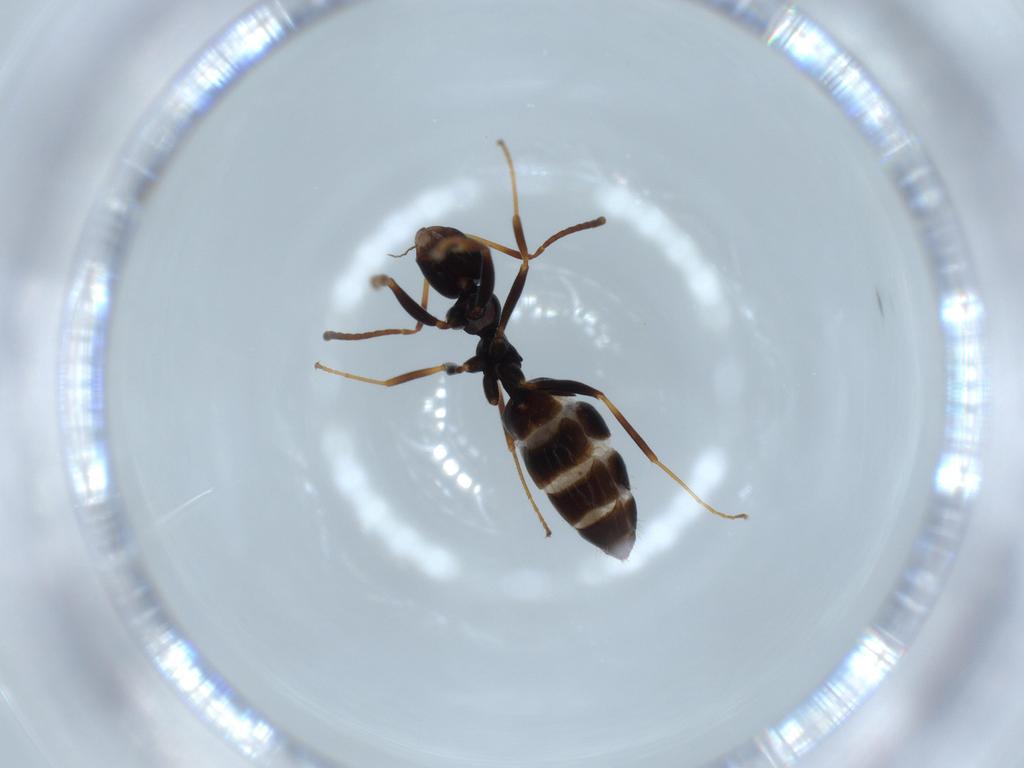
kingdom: Animalia
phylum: Arthropoda
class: Insecta
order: Hymenoptera
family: Formicidae
